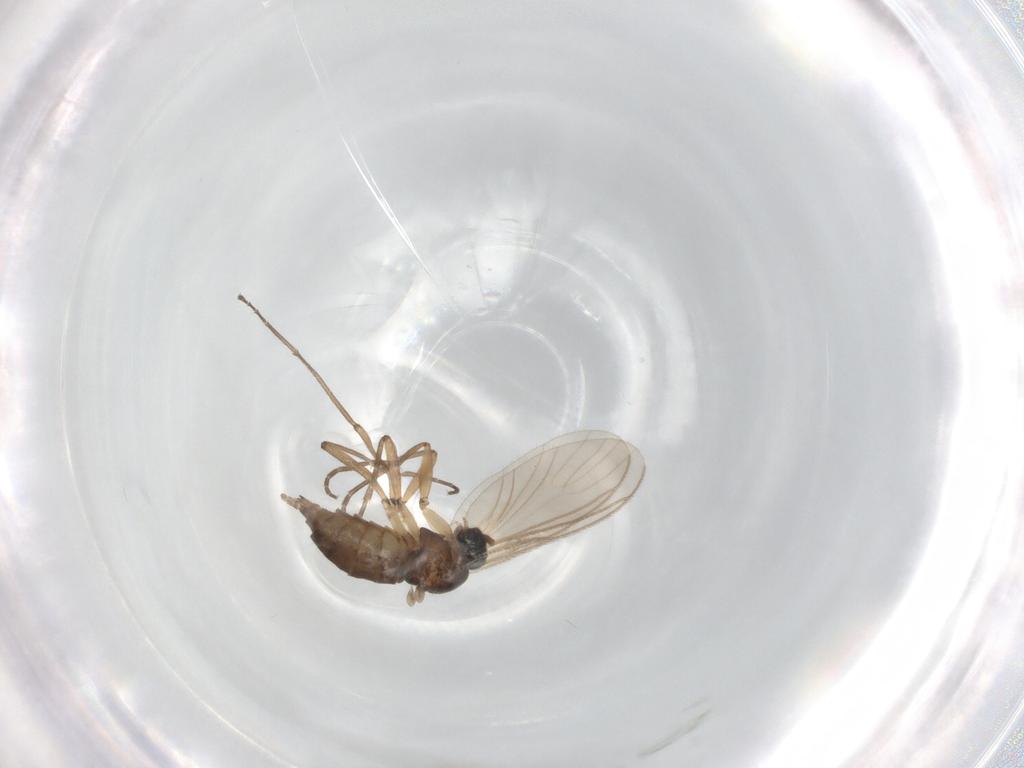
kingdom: Animalia
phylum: Arthropoda
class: Insecta
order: Diptera
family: Sciaridae
